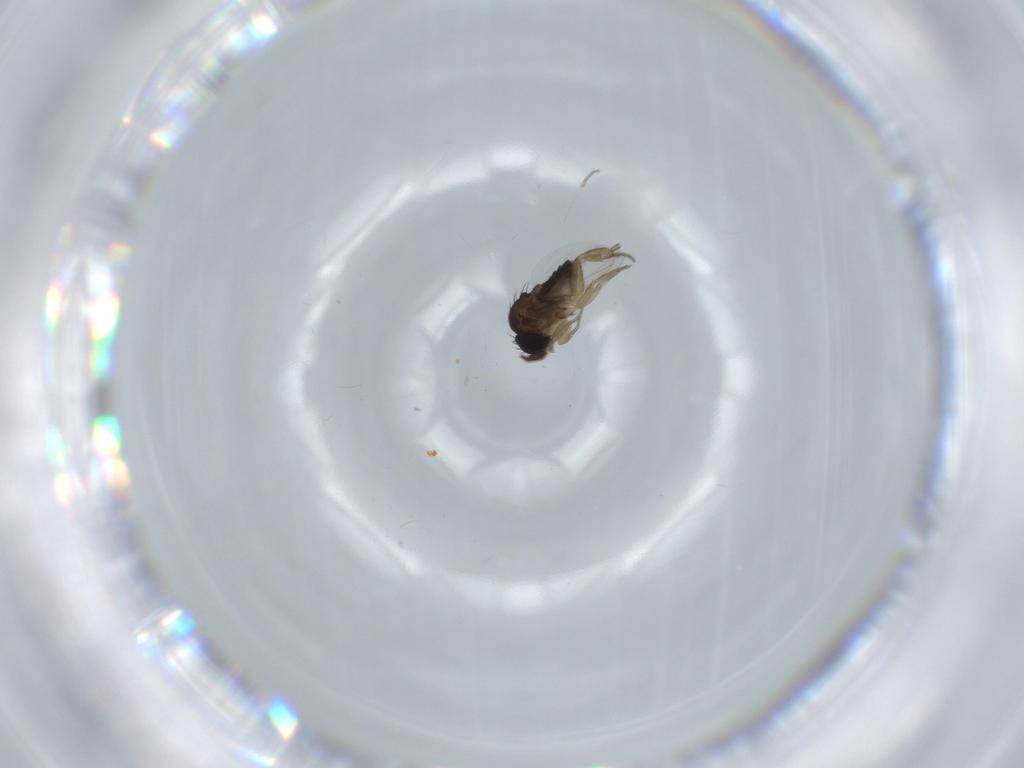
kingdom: Animalia
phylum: Arthropoda
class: Insecta
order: Diptera
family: Phoridae
